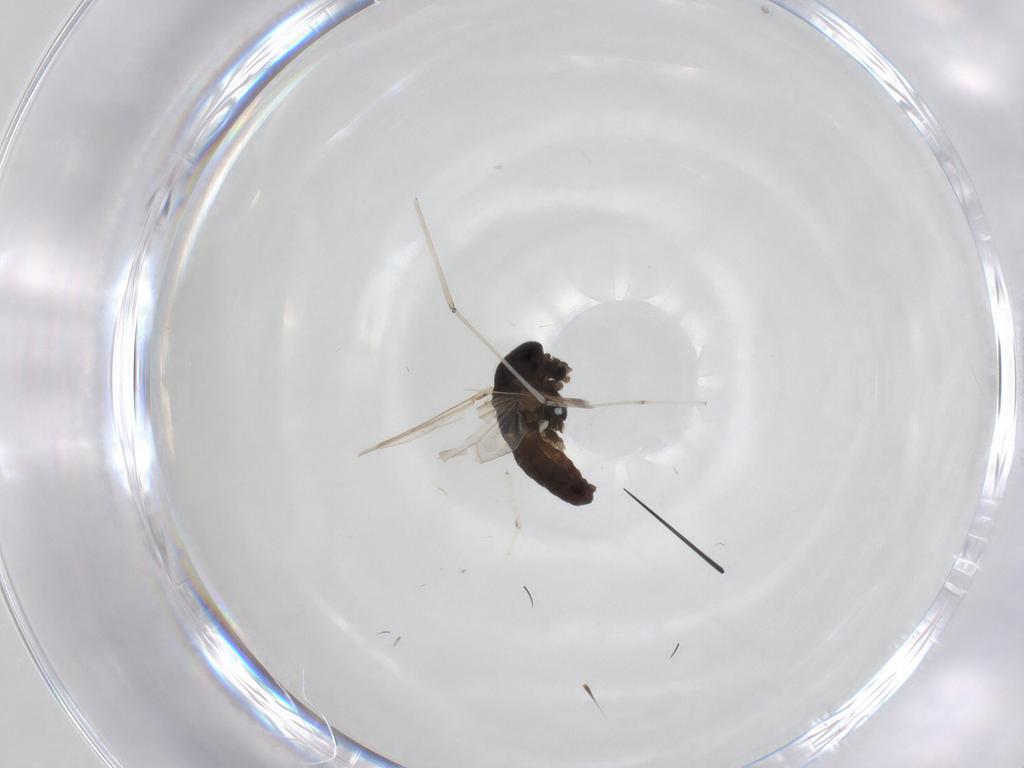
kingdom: Animalia
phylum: Arthropoda
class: Insecta
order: Diptera
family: Chironomidae
